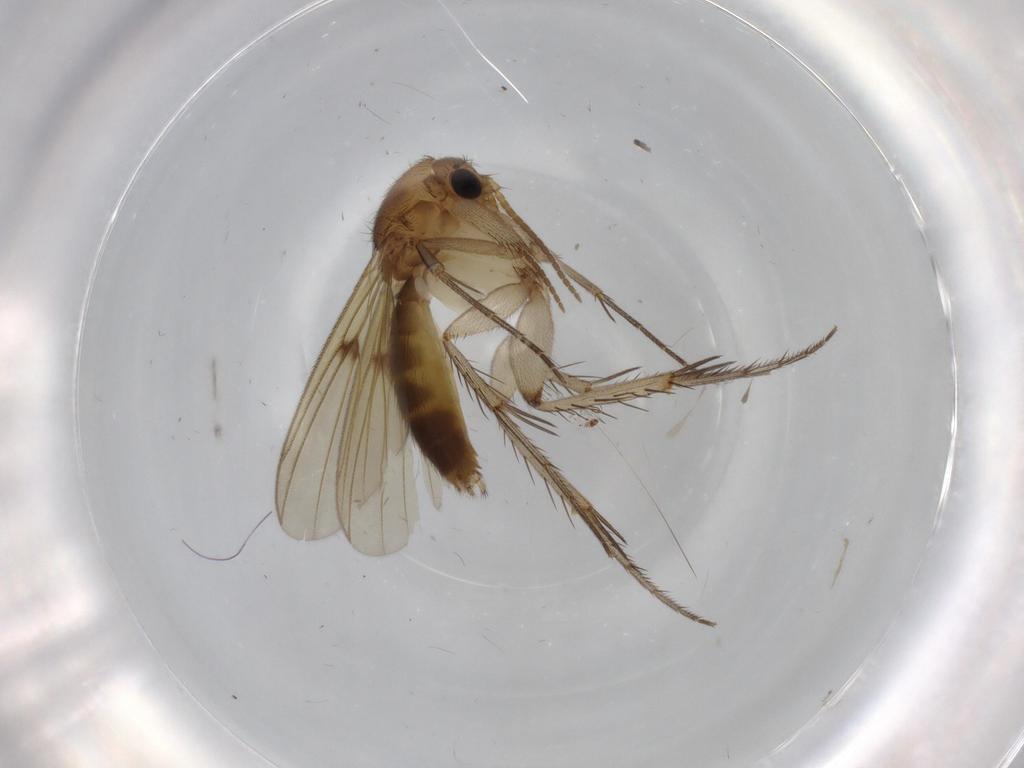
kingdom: Animalia
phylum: Arthropoda
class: Insecta
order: Diptera
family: Mycetophilidae
